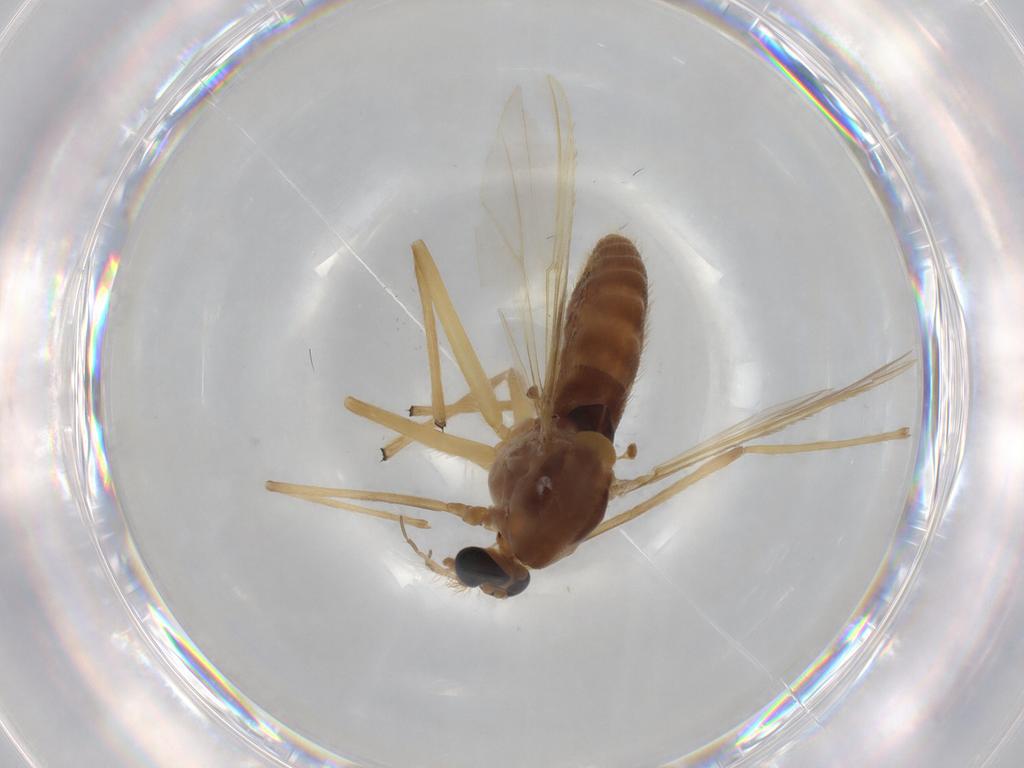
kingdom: Animalia
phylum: Arthropoda
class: Insecta
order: Diptera
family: Chironomidae
